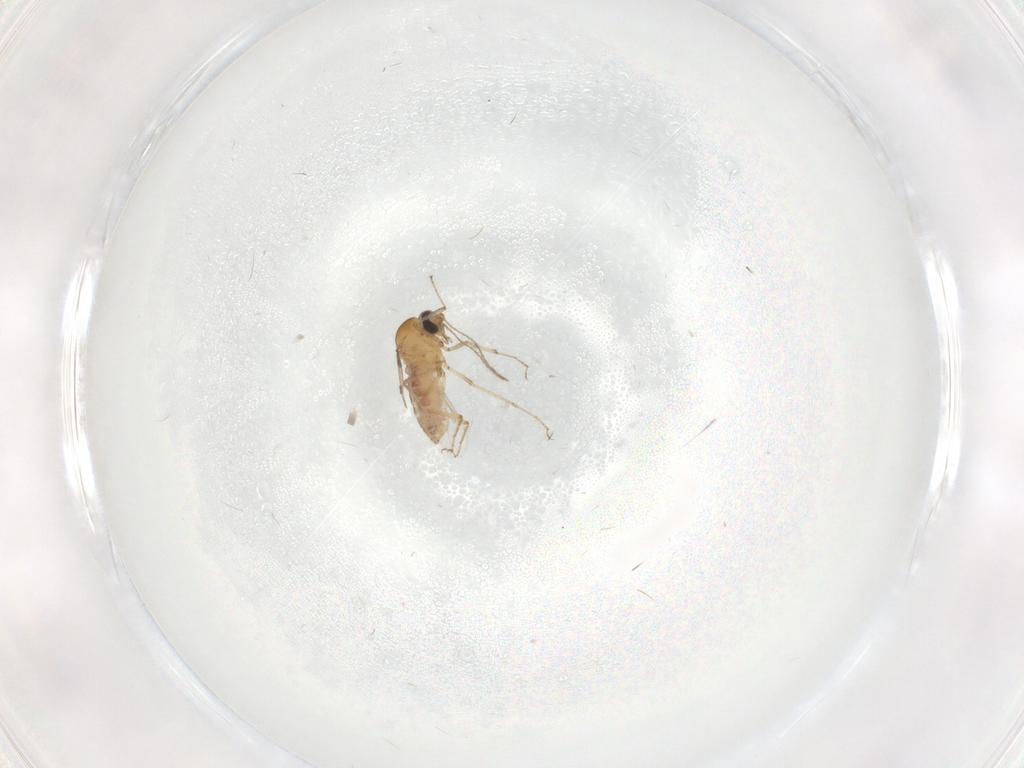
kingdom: Animalia
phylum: Arthropoda
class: Insecta
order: Diptera
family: Ceratopogonidae
